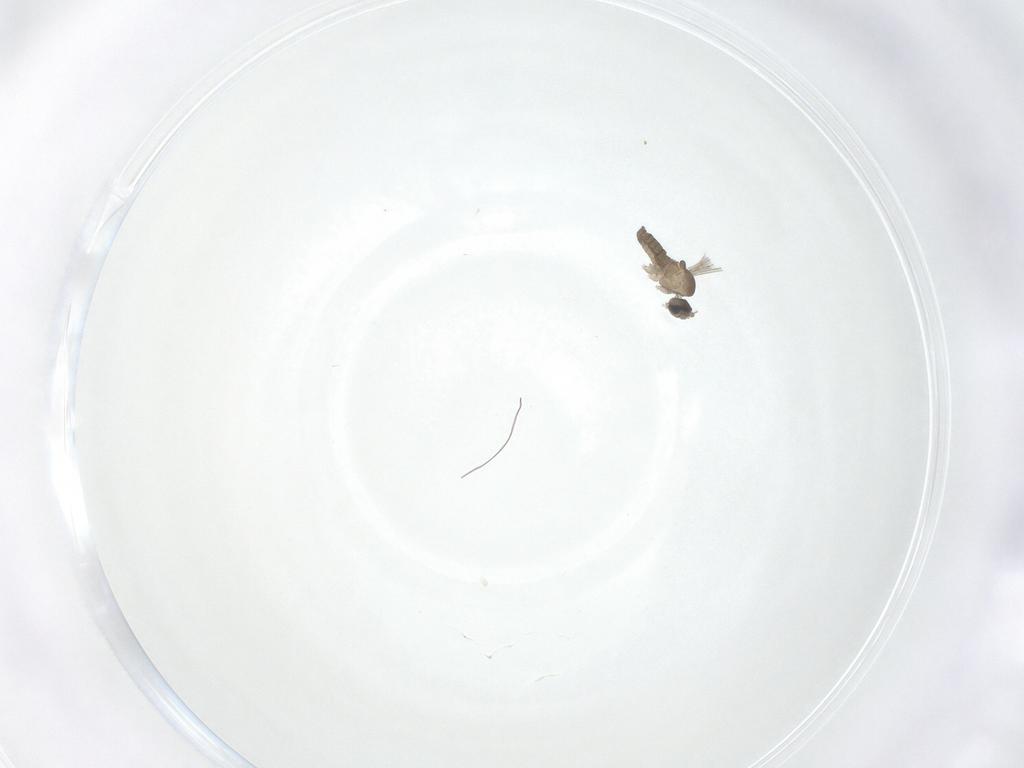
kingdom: Animalia
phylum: Arthropoda
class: Insecta
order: Diptera
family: Cecidomyiidae
